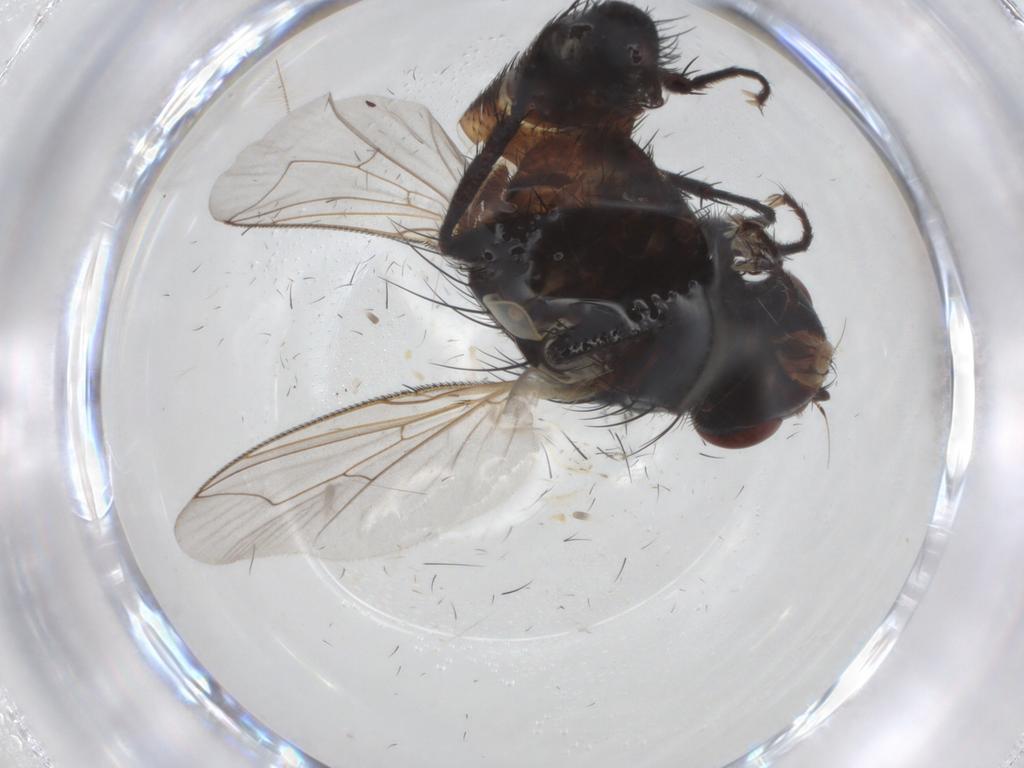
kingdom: Animalia
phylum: Arthropoda
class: Insecta
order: Diptera
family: Sarcophagidae
